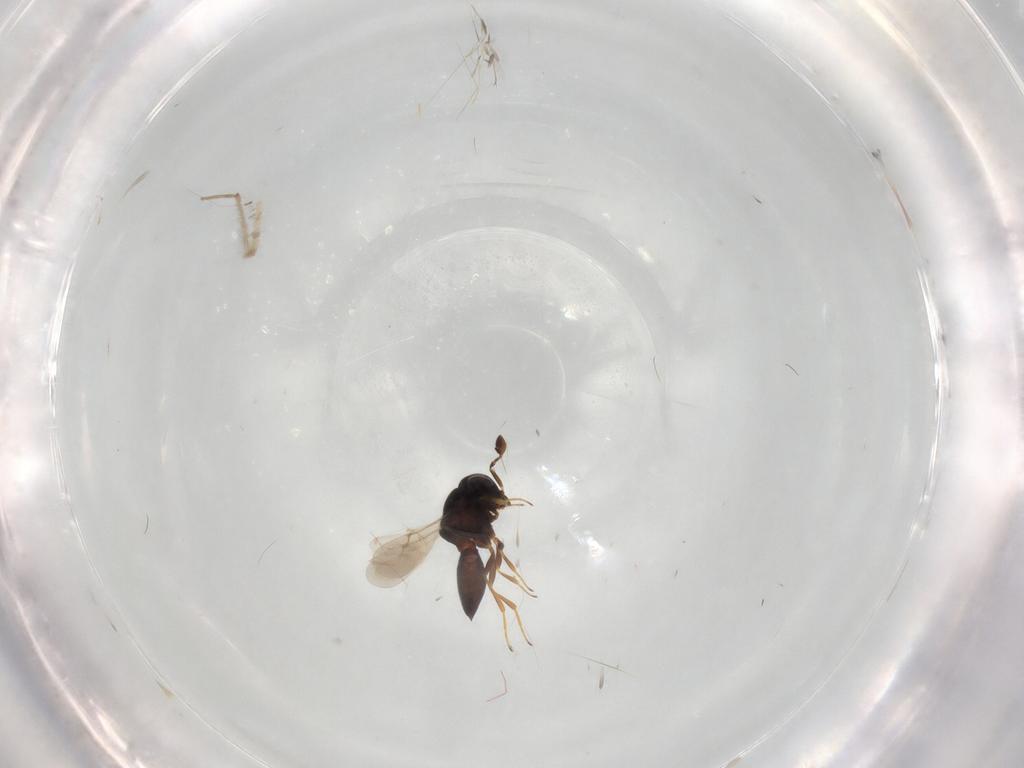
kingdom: Animalia
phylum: Arthropoda
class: Insecta
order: Hymenoptera
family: Scelionidae
